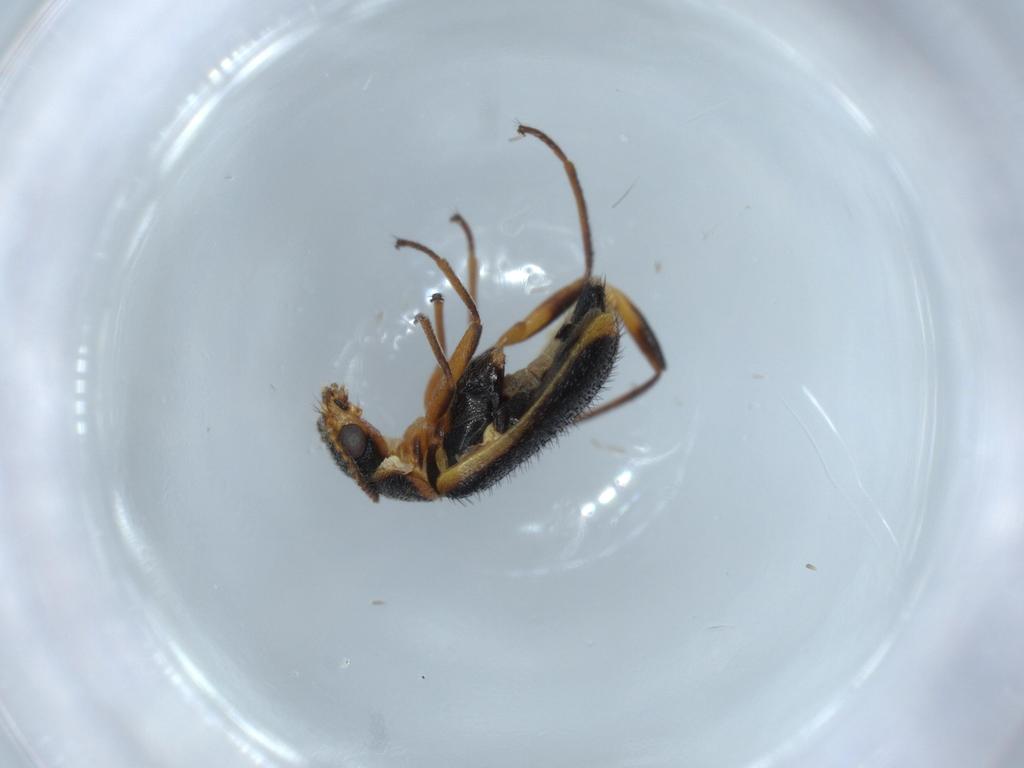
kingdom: Animalia
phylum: Arthropoda
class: Insecta
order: Coleoptera
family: Melyridae
